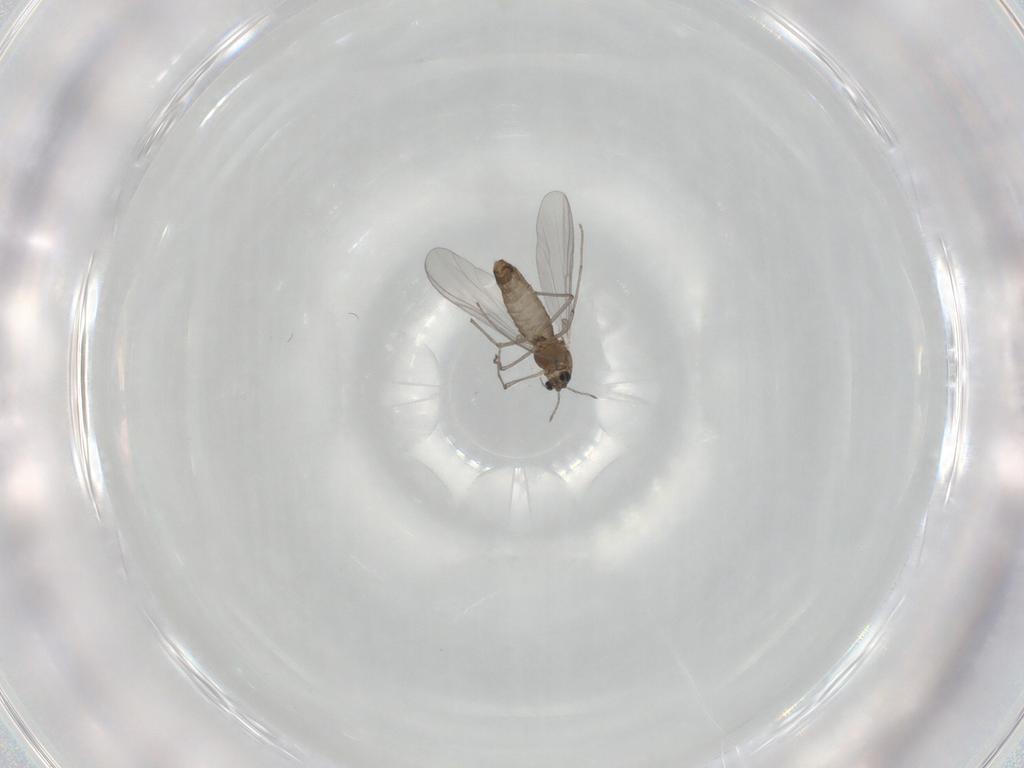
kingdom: Animalia
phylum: Arthropoda
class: Insecta
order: Diptera
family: Chironomidae
